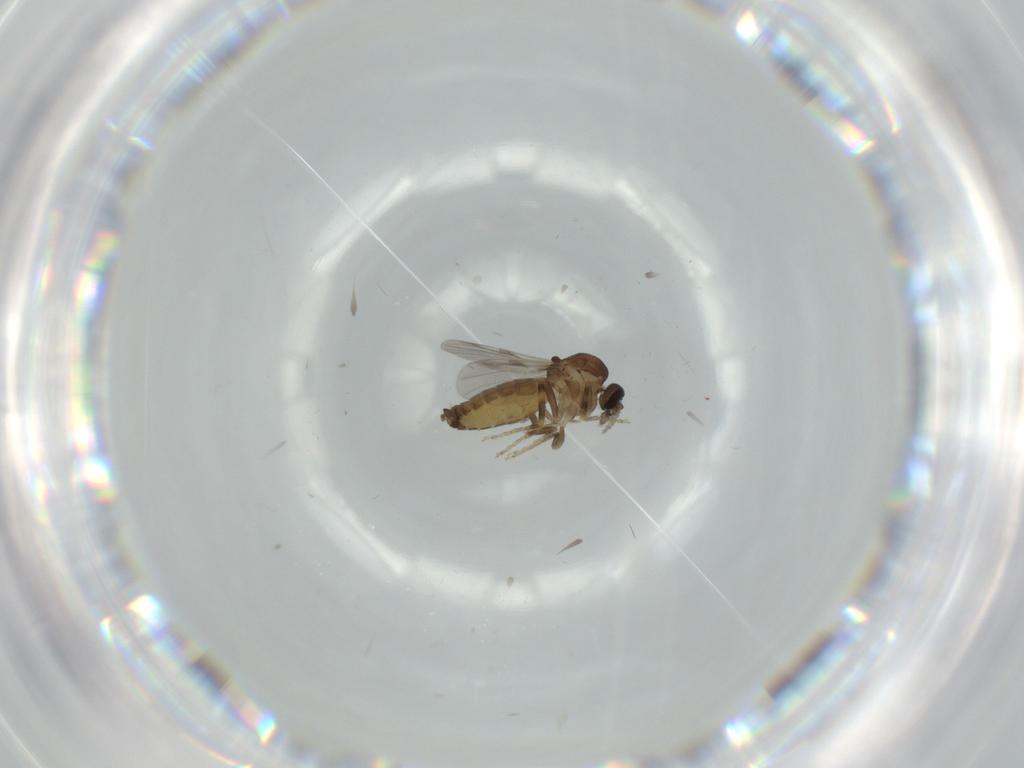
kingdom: Animalia
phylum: Arthropoda
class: Insecta
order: Diptera
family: Ceratopogonidae
